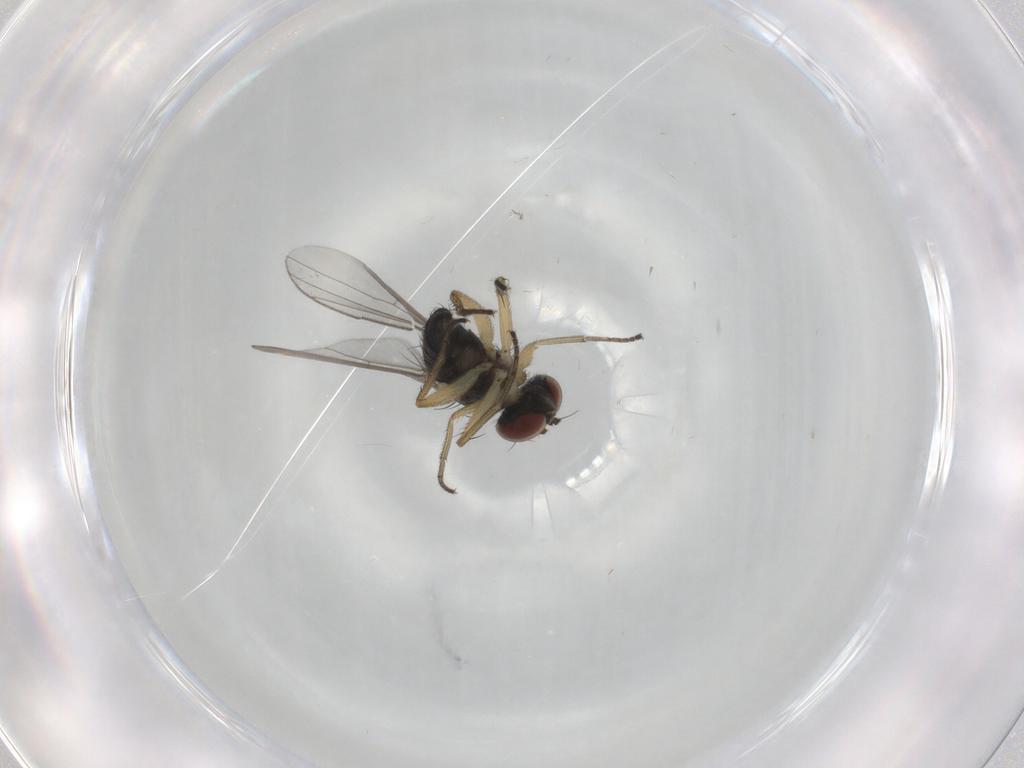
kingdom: Animalia
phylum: Arthropoda
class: Insecta
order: Diptera
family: Dolichopodidae
